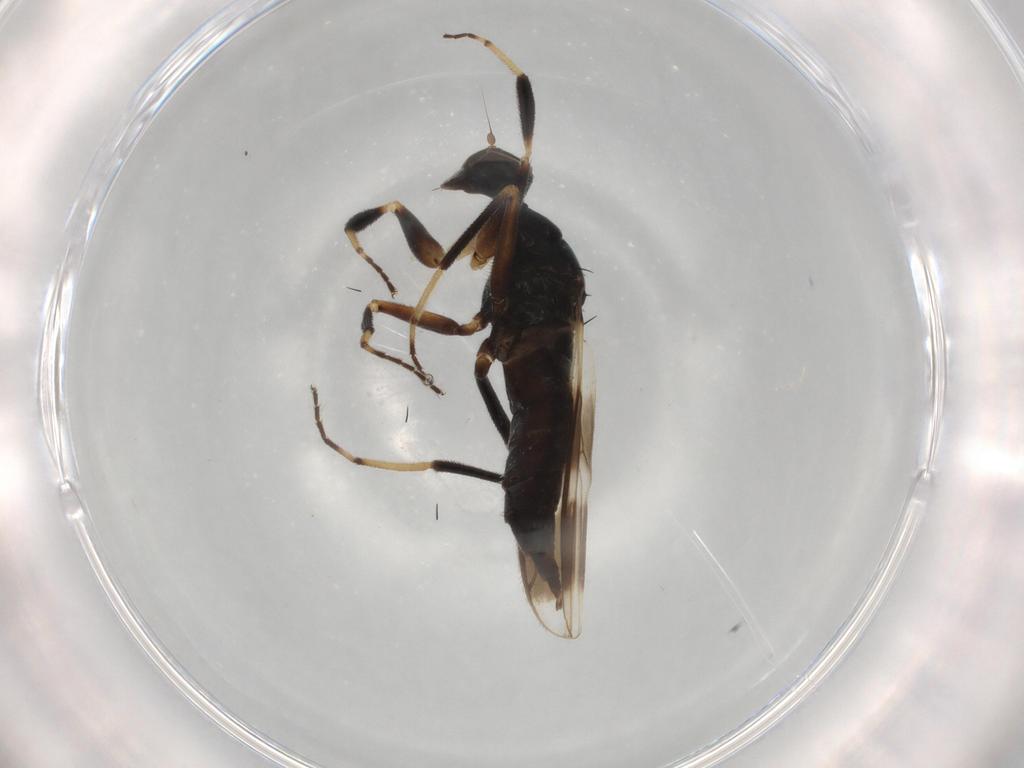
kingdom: Animalia
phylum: Arthropoda
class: Insecta
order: Diptera
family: Hybotidae
